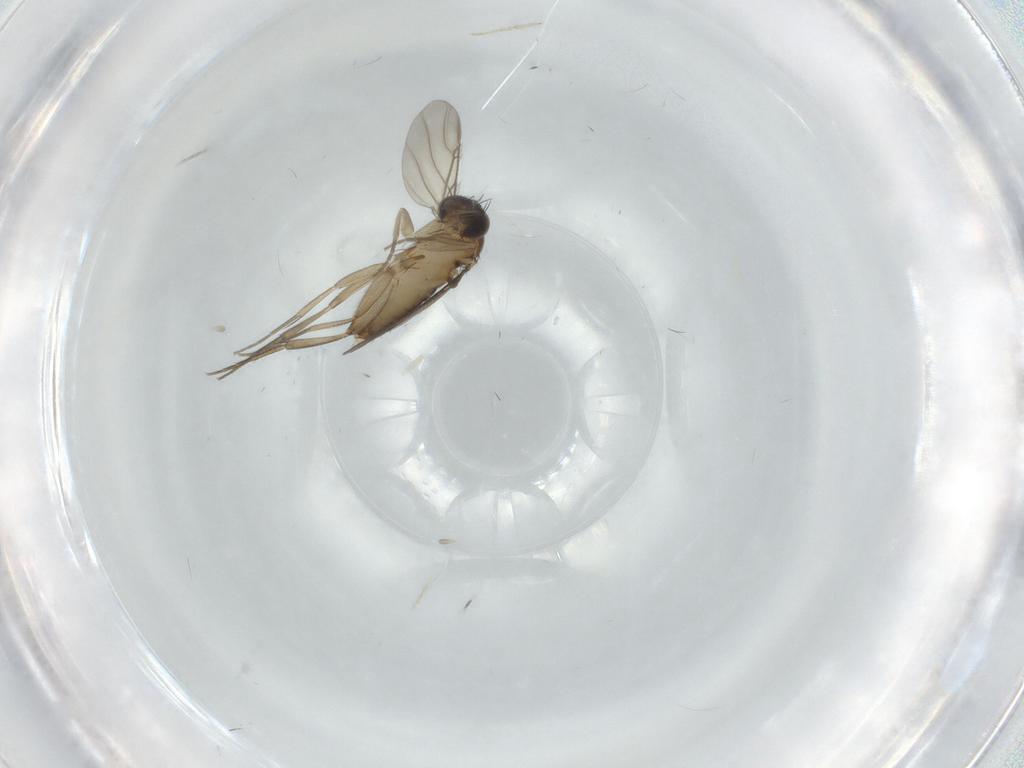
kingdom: Animalia
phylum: Arthropoda
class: Insecta
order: Diptera
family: Phoridae
